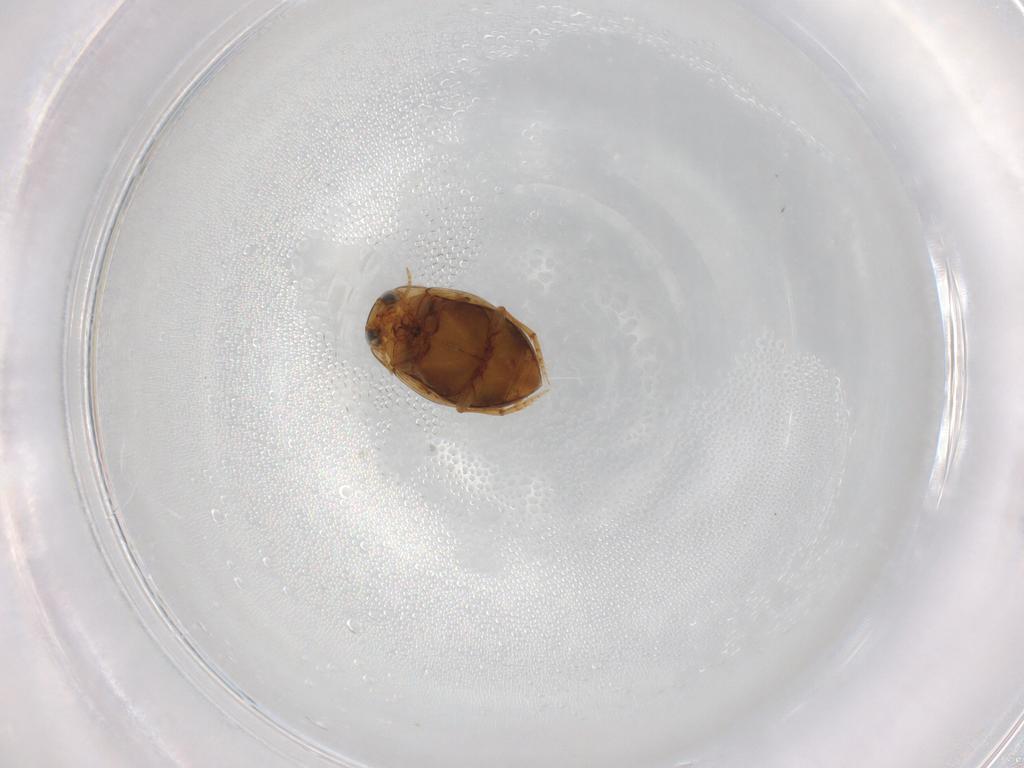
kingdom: Animalia
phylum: Arthropoda
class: Insecta
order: Coleoptera
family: Dytiscidae
